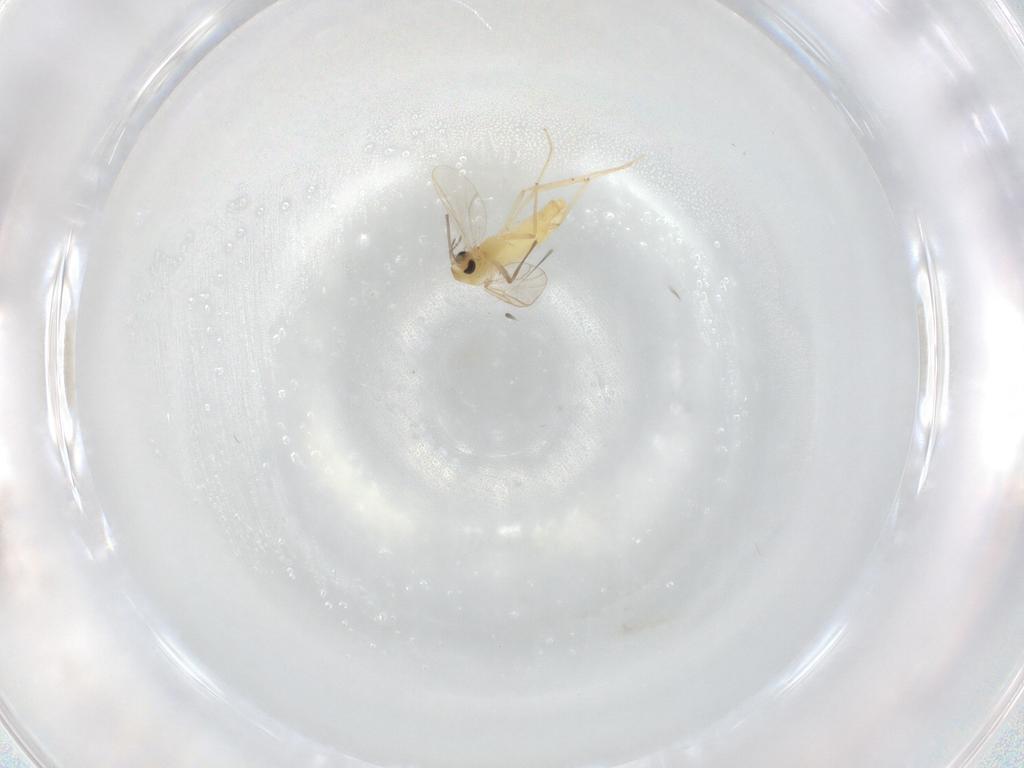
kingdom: Animalia
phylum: Arthropoda
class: Insecta
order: Diptera
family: Chironomidae
